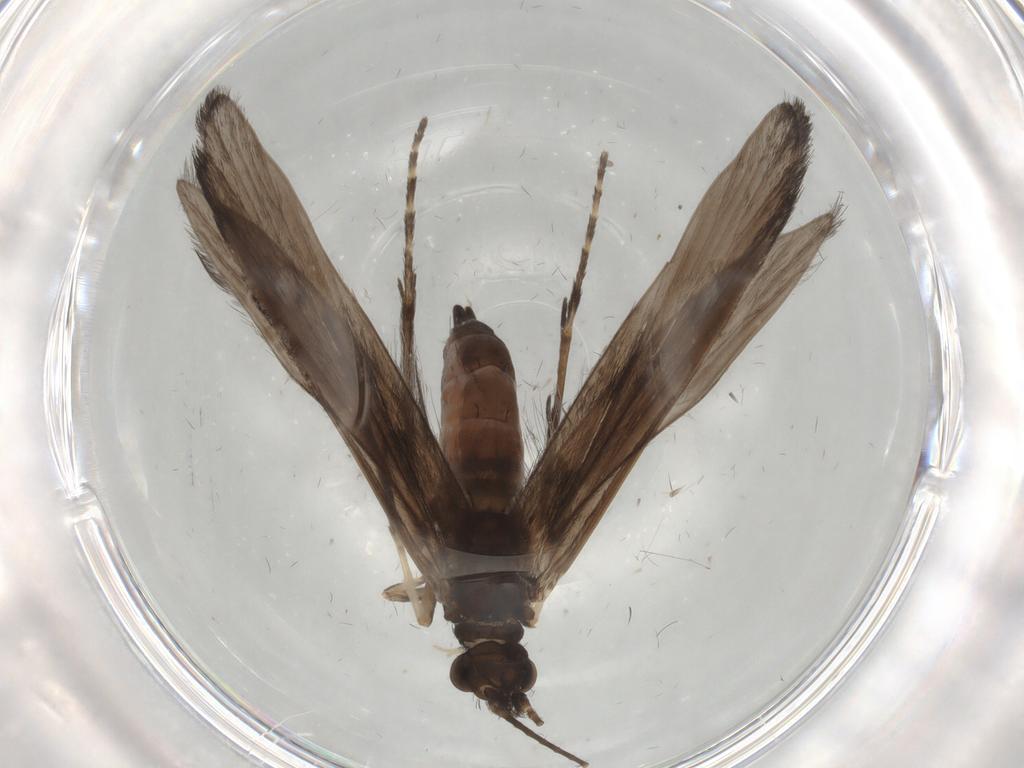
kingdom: Animalia
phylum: Arthropoda
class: Insecta
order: Trichoptera
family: Xiphocentronidae
